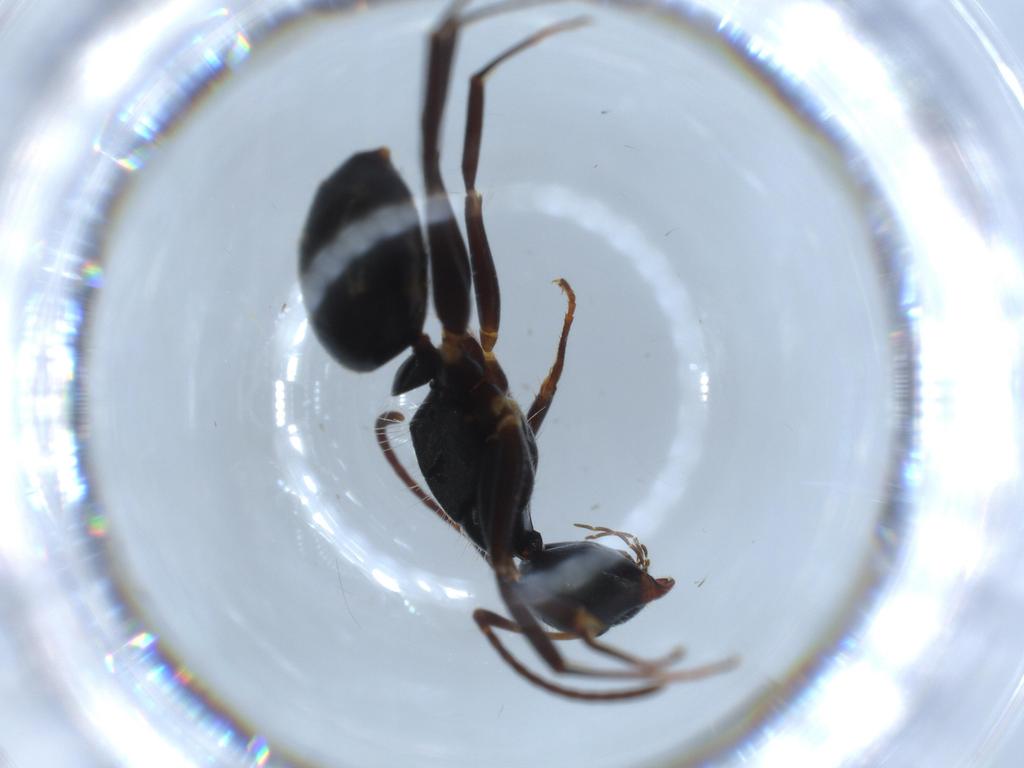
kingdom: Animalia
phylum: Arthropoda
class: Insecta
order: Hymenoptera
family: Formicidae
